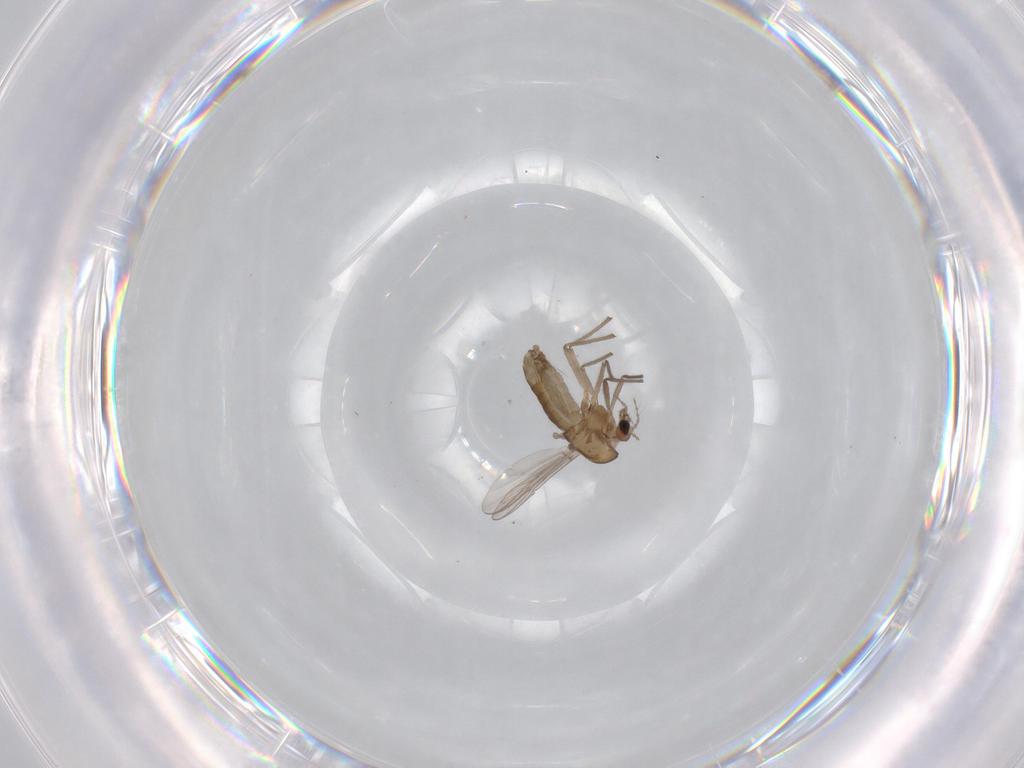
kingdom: Animalia
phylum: Arthropoda
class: Insecta
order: Diptera
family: Chironomidae
